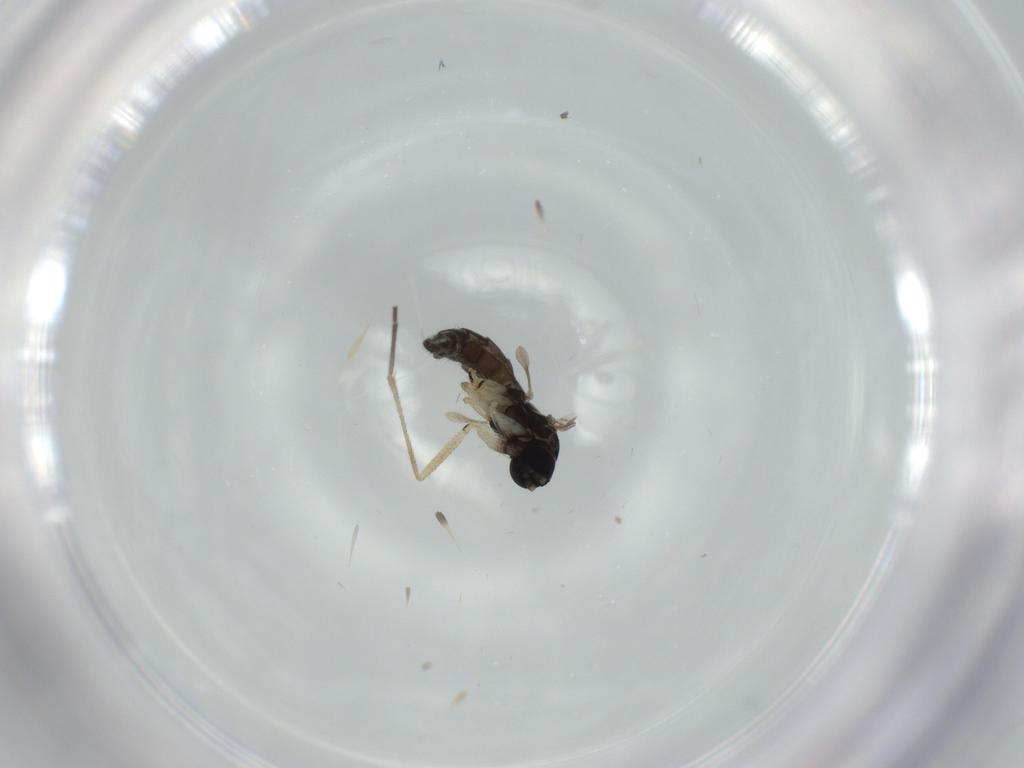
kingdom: Animalia
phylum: Arthropoda
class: Insecta
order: Diptera
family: Sciaridae
